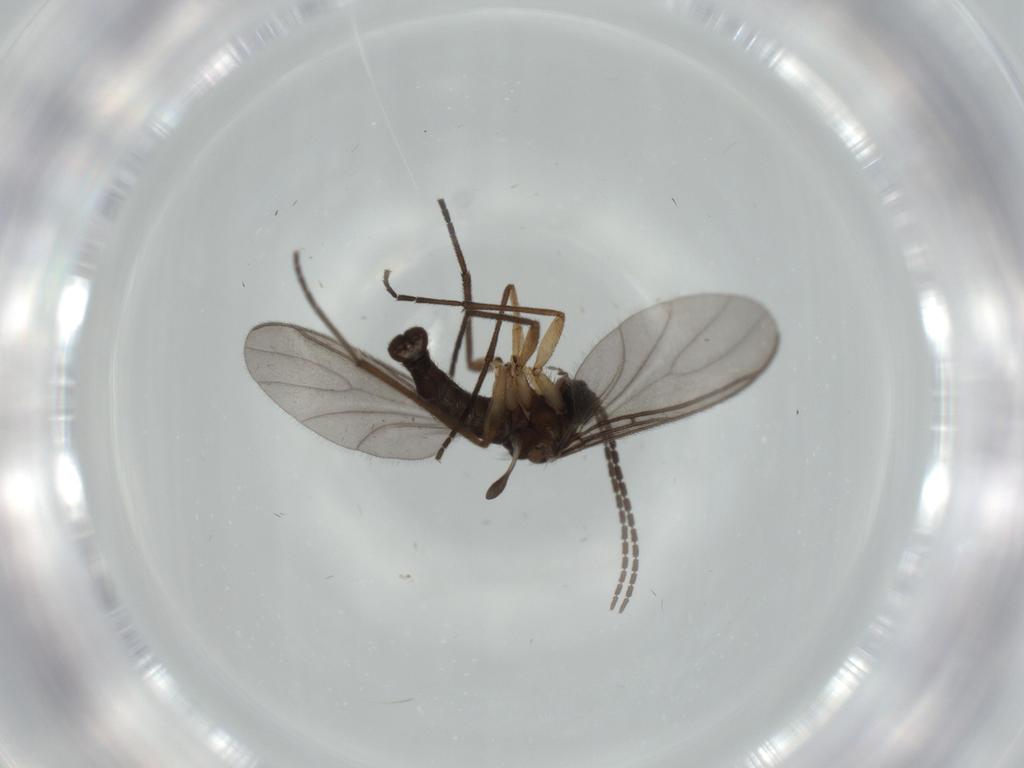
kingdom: Animalia
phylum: Arthropoda
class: Insecta
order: Diptera
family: Sciaridae
